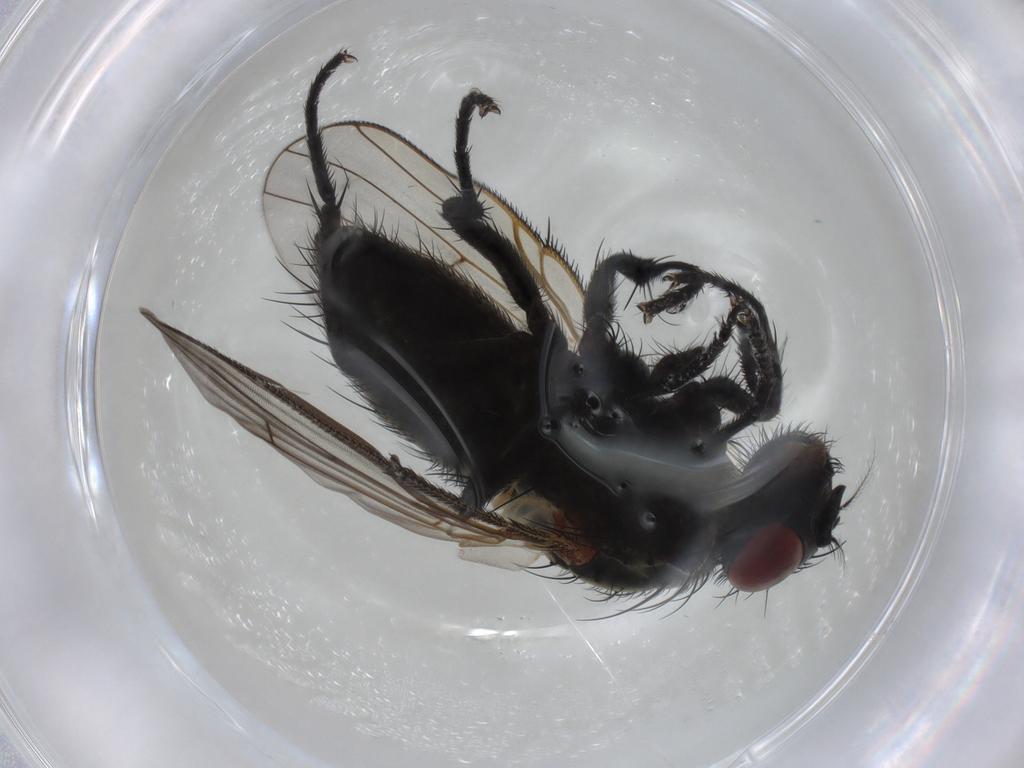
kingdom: Animalia
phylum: Arthropoda
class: Insecta
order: Diptera
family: Muscidae
